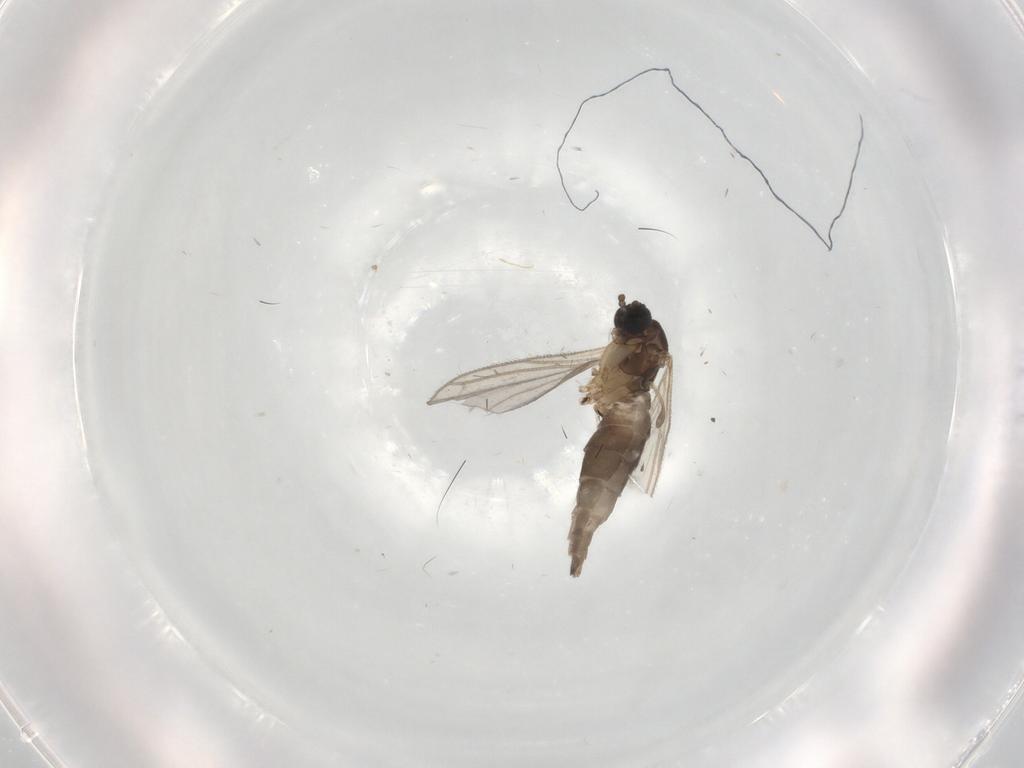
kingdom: Animalia
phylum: Arthropoda
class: Insecta
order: Diptera
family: Sciaridae
